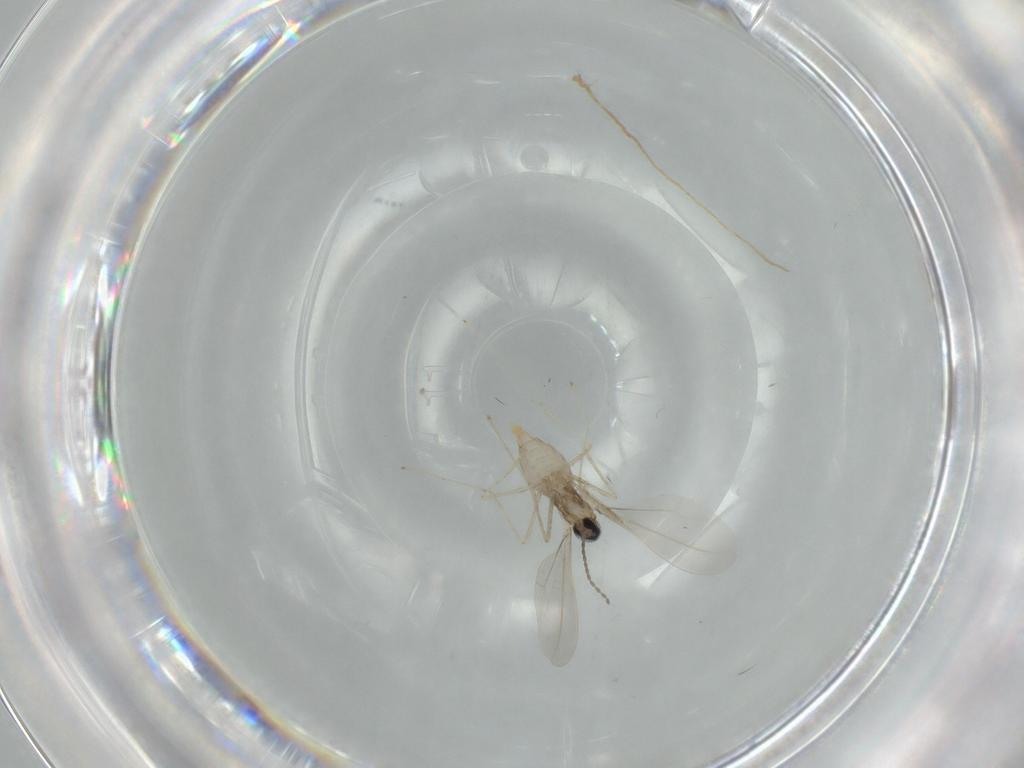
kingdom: Animalia
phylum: Arthropoda
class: Insecta
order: Diptera
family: Cecidomyiidae
